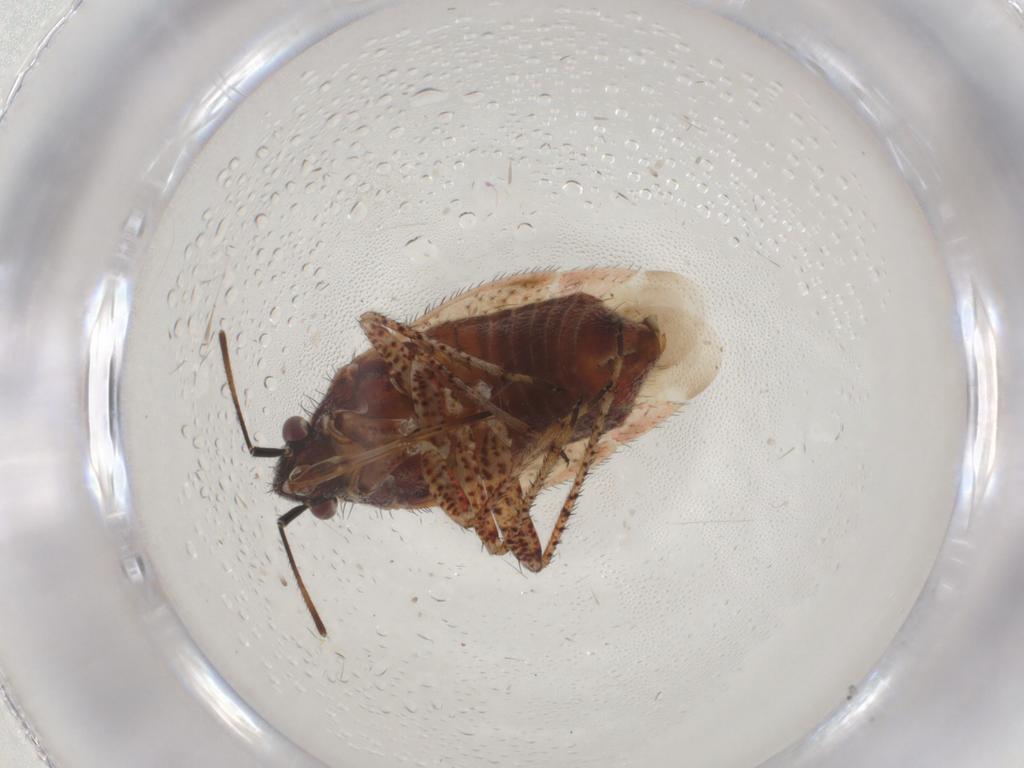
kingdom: Animalia
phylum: Arthropoda
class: Insecta
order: Hemiptera
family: Miridae
